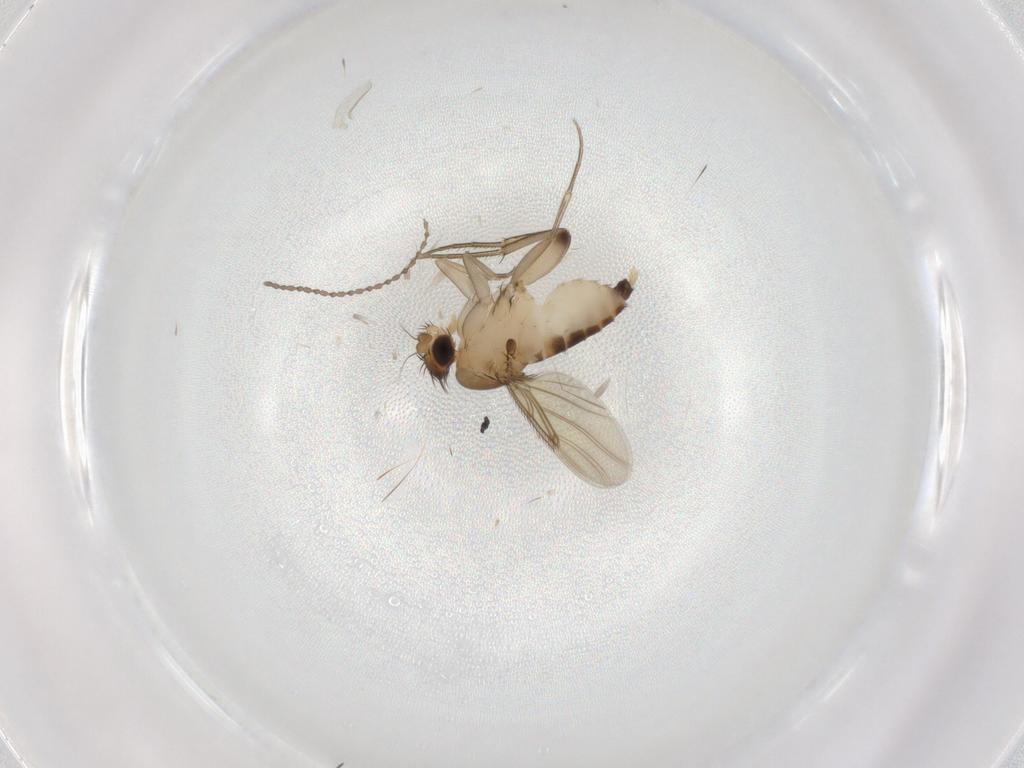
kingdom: Animalia
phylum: Arthropoda
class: Insecta
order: Diptera
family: Phoridae
